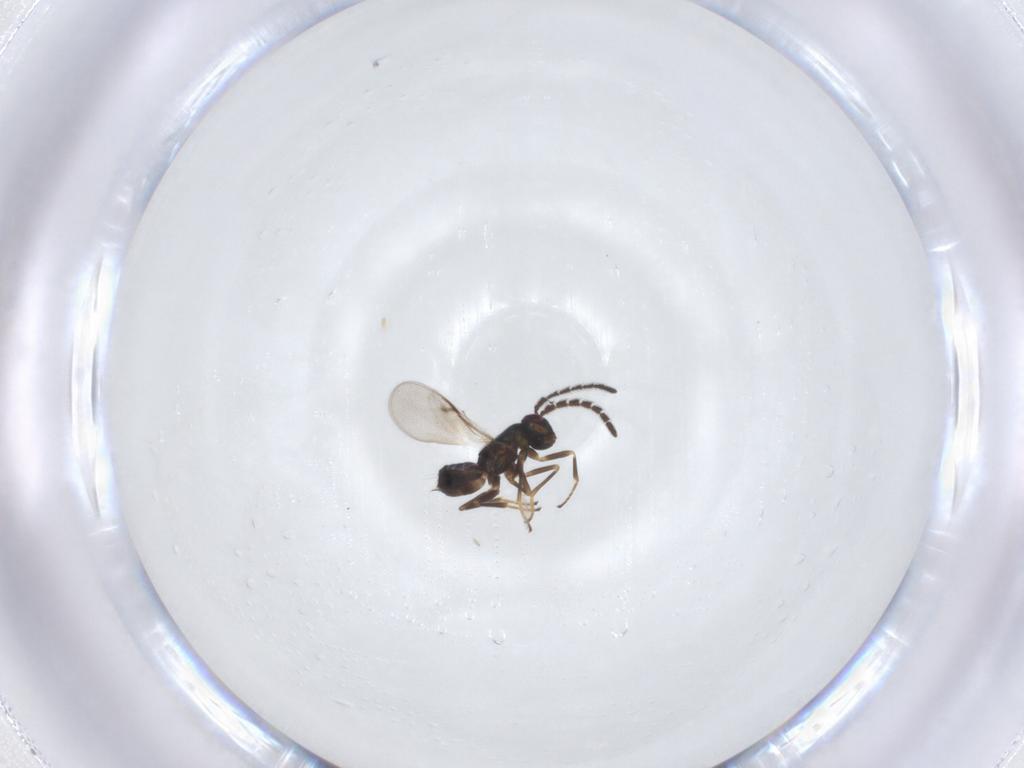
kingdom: Animalia
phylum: Arthropoda
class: Insecta
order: Hymenoptera
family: Encyrtidae
